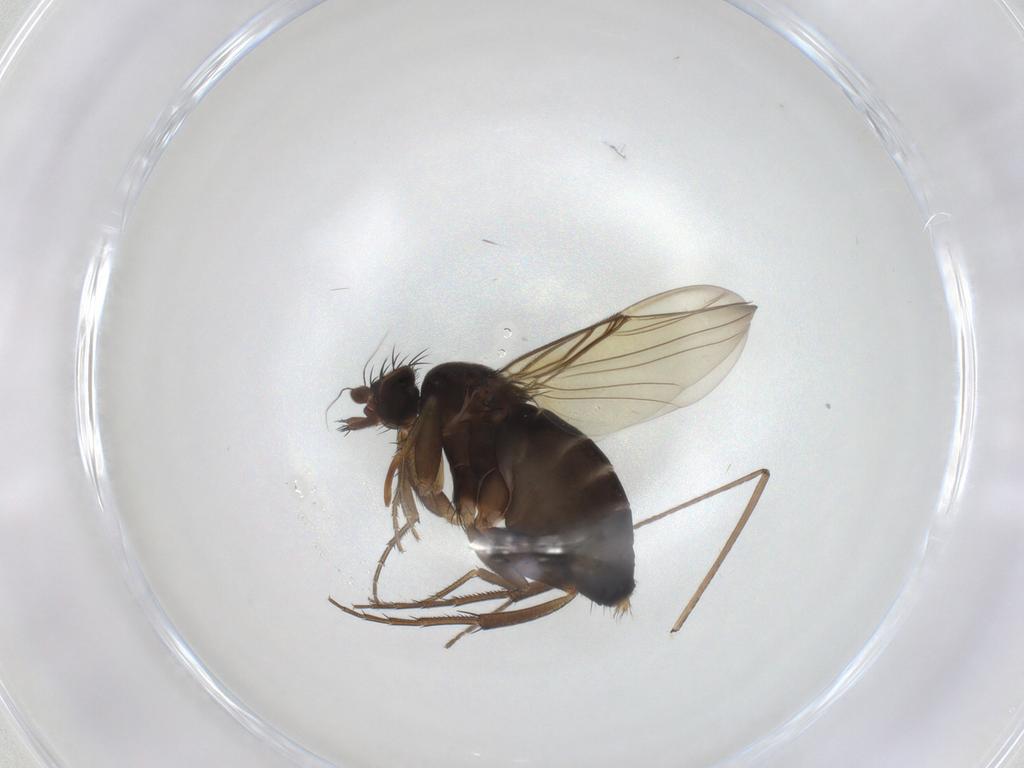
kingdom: Animalia
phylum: Arthropoda
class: Insecta
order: Diptera
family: Phoridae
